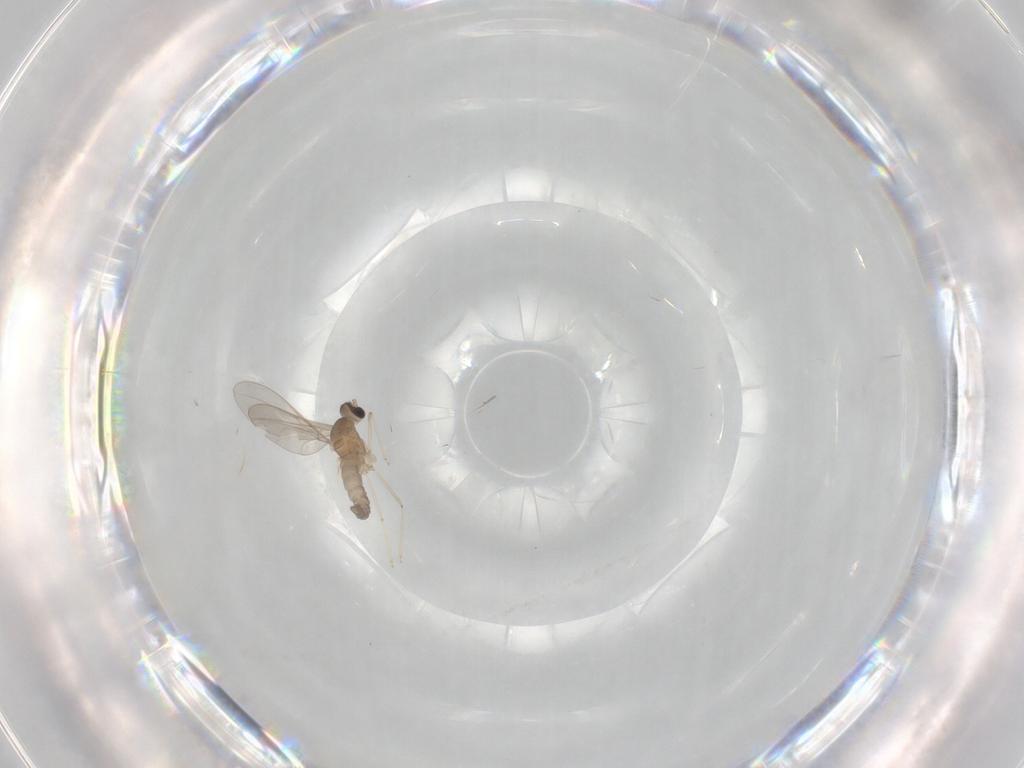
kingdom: Animalia
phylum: Arthropoda
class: Insecta
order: Diptera
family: Cecidomyiidae
